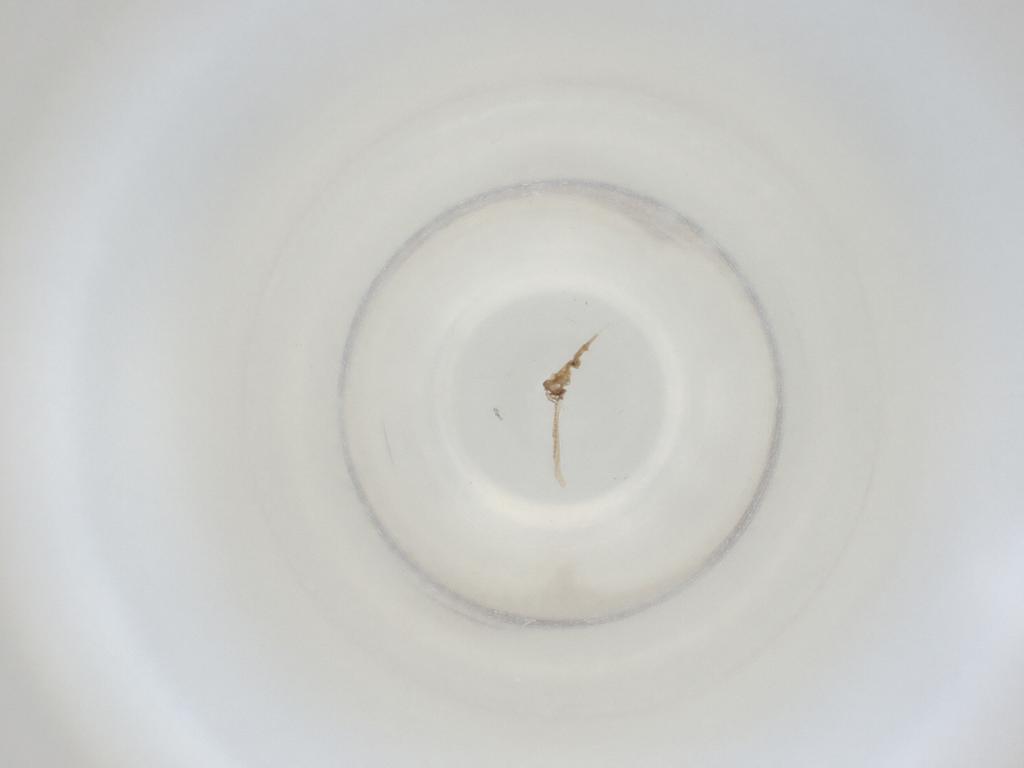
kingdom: Animalia
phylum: Arthropoda
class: Insecta
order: Diptera
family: Cecidomyiidae
